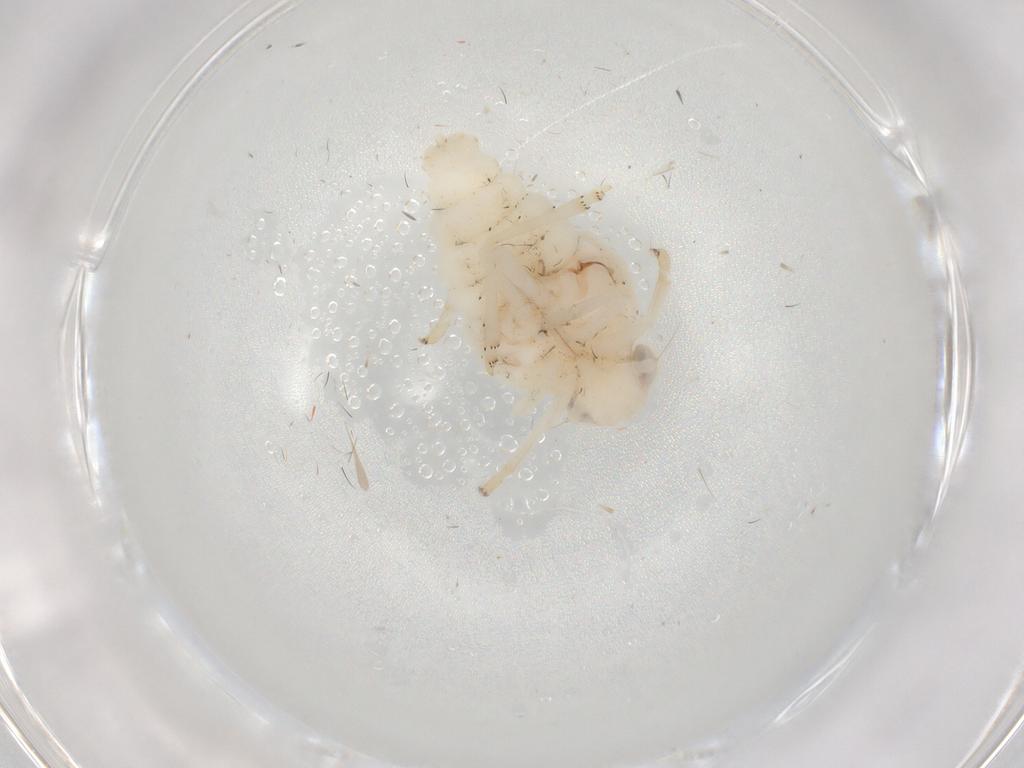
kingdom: Animalia
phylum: Arthropoda
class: Insecta
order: Hemiptera
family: Nogodinidae
